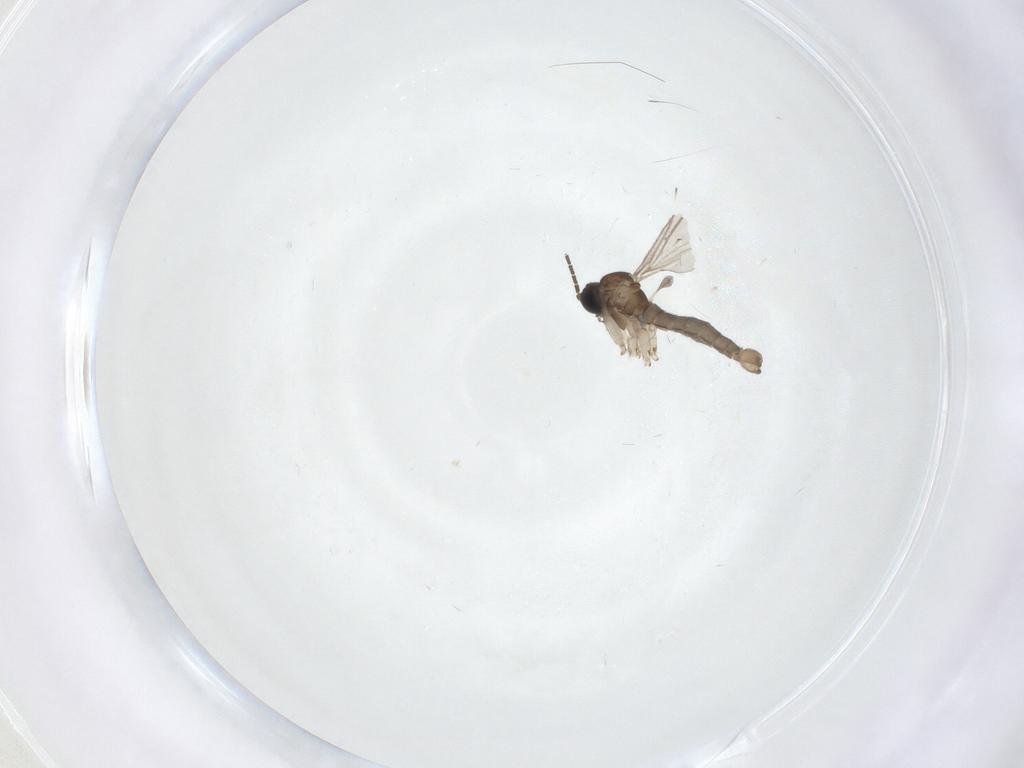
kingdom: Animalia
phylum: Arthropoda
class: Insecta
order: Diptera
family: Sciaridae
